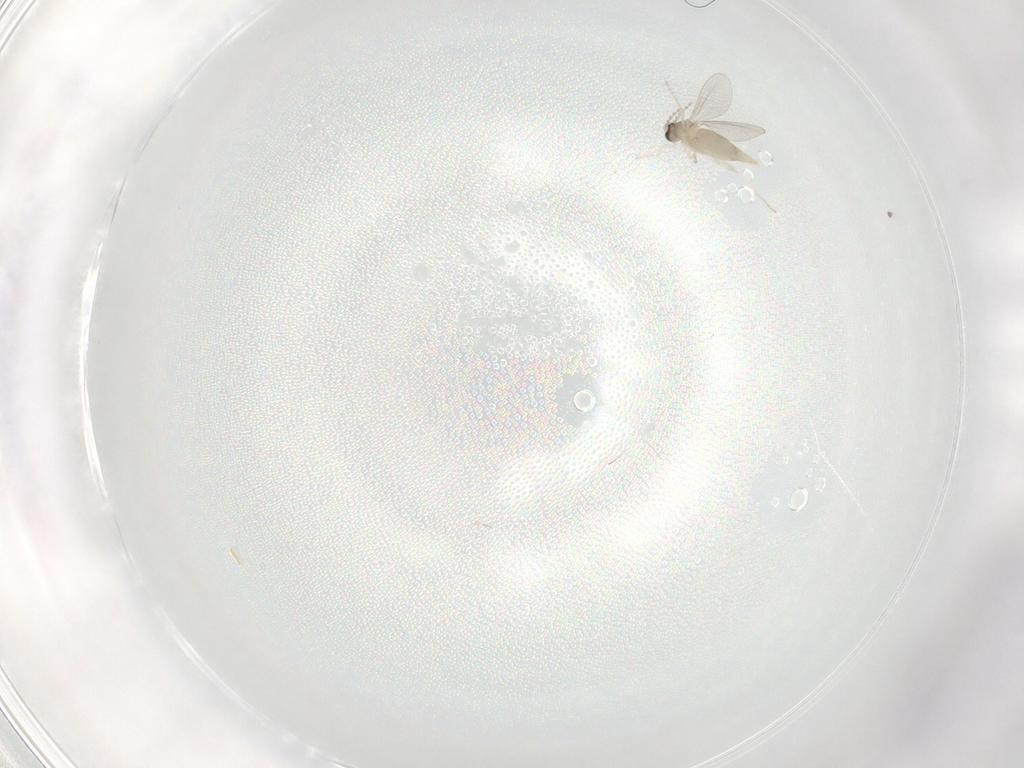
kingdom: Animalia
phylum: Arthropoda
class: Insecta
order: Diptera
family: Cecidomyiidae
